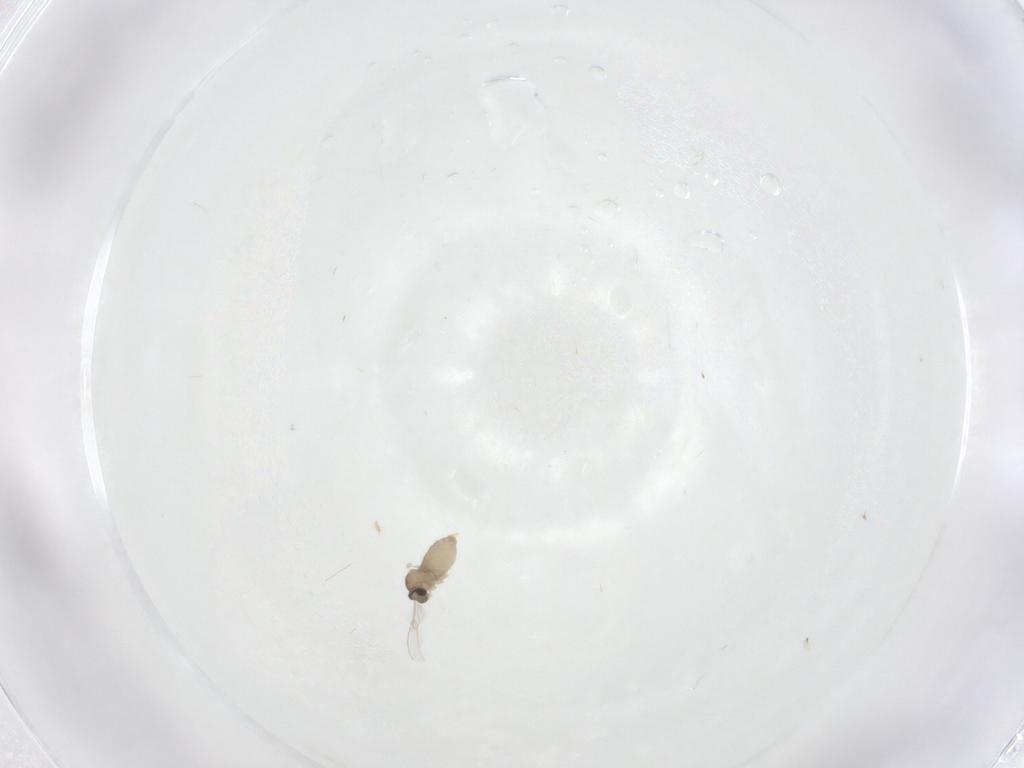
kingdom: Animalia
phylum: Arthropoda
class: Insecta
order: Diptera
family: Cecidomyiidae
